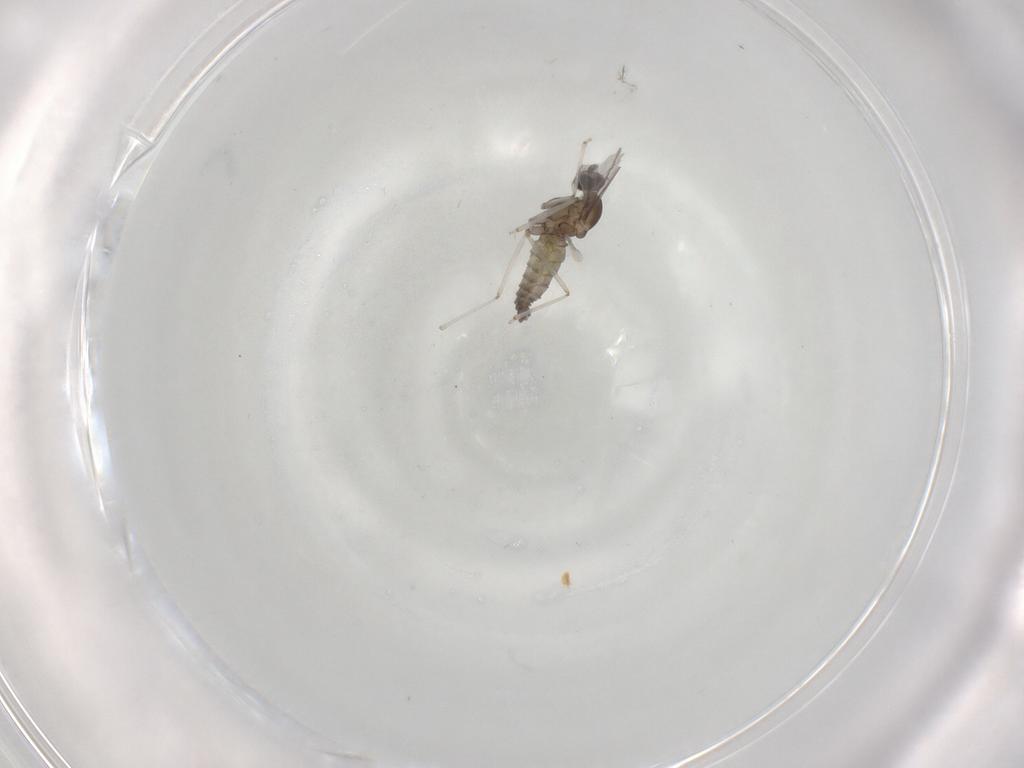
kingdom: Animalia
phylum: Arthropoda
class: Insecta
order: Diptera
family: Cecidomyiidae
